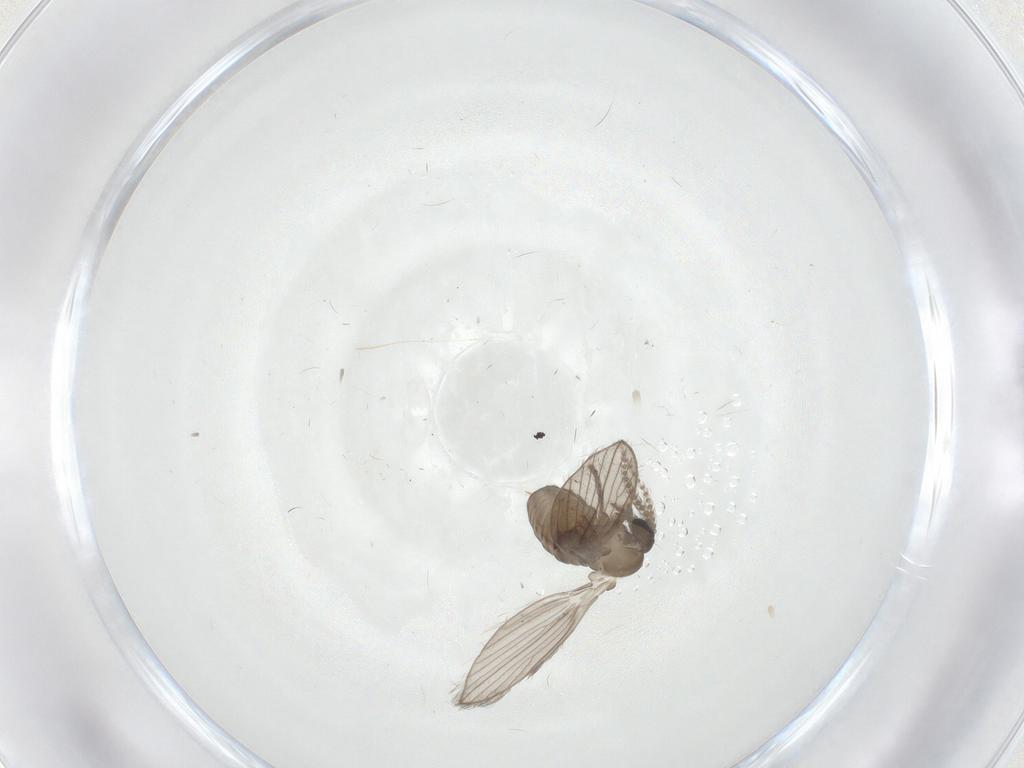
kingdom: Animalia
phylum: Arthropoda
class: Insecta
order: Diptera
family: Psychodidae
